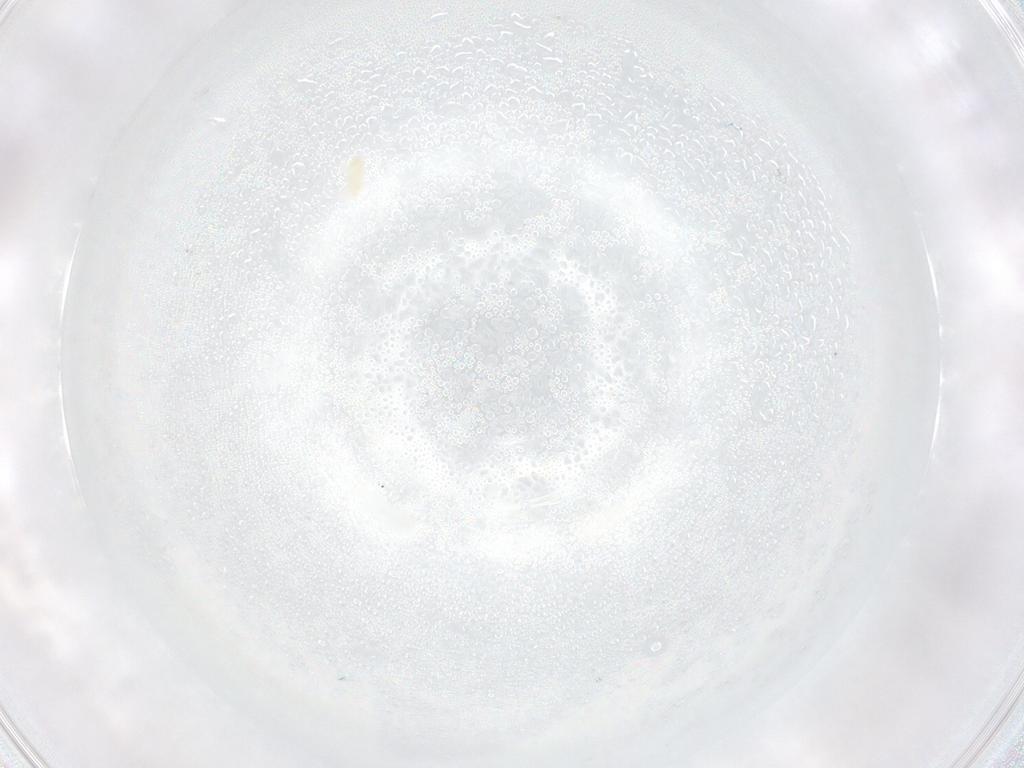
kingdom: Animalia
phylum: Arthropoda
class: Arachnida
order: Trombidiformes
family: Tetranychidae
